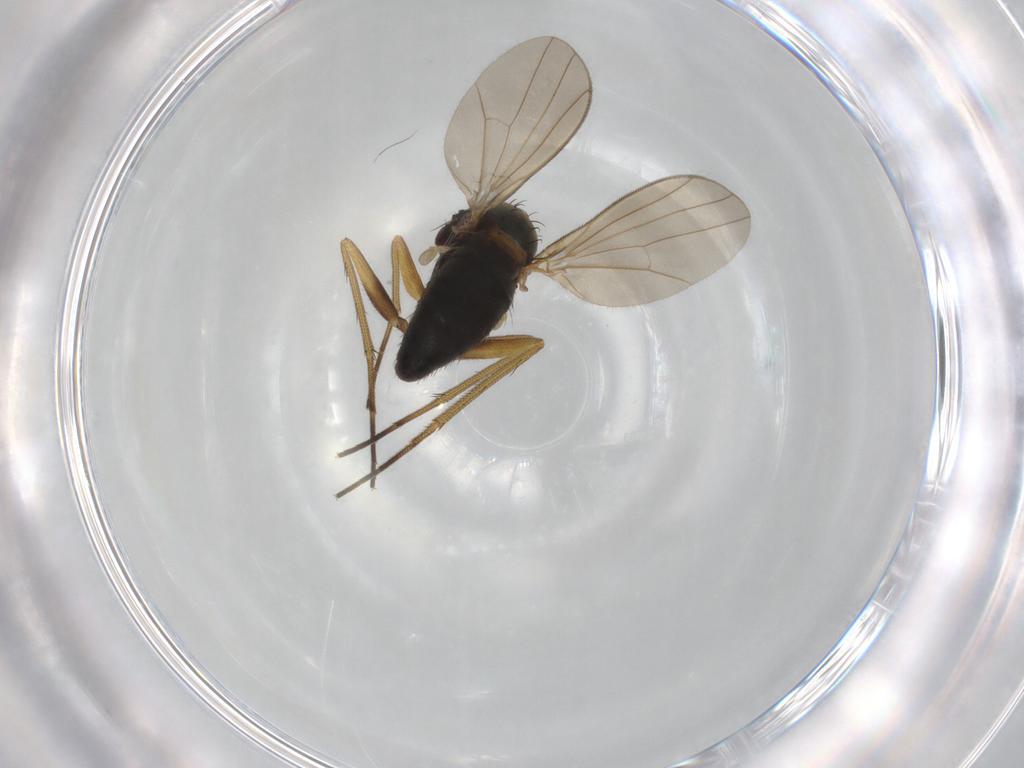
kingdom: Animalia
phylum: Arthropoda
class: Insecta
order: Diptera
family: Dolichopodidae
